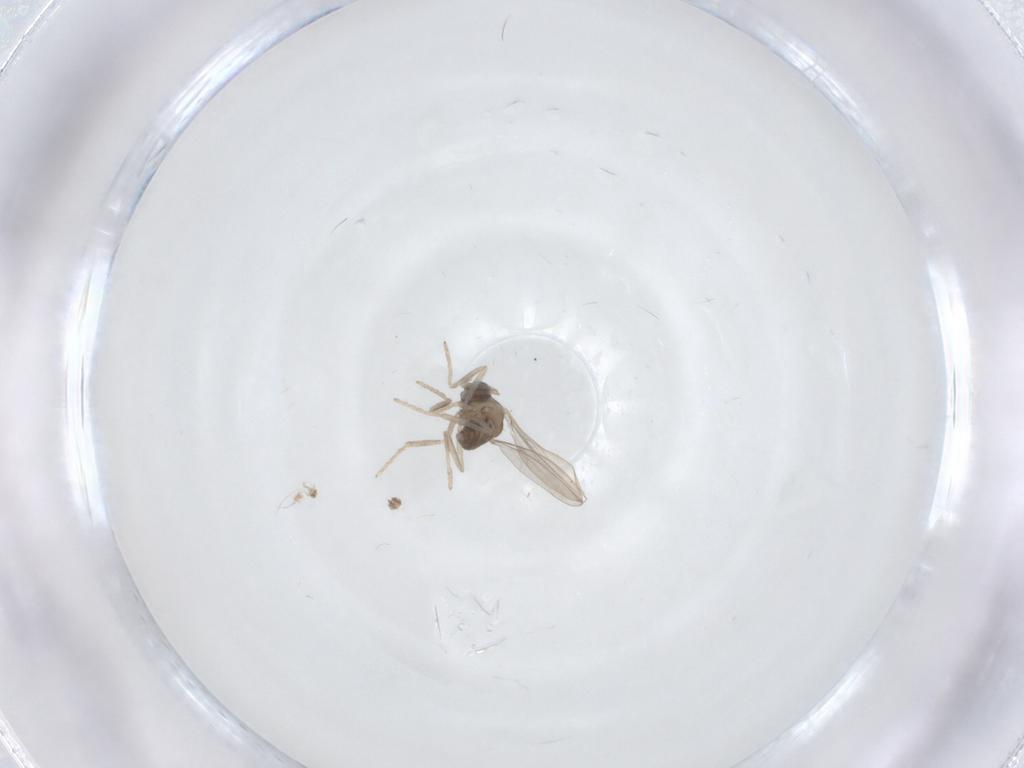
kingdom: Animalia
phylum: Arthropoda
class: Insecta
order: Diptera
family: Cecidomyiidae
